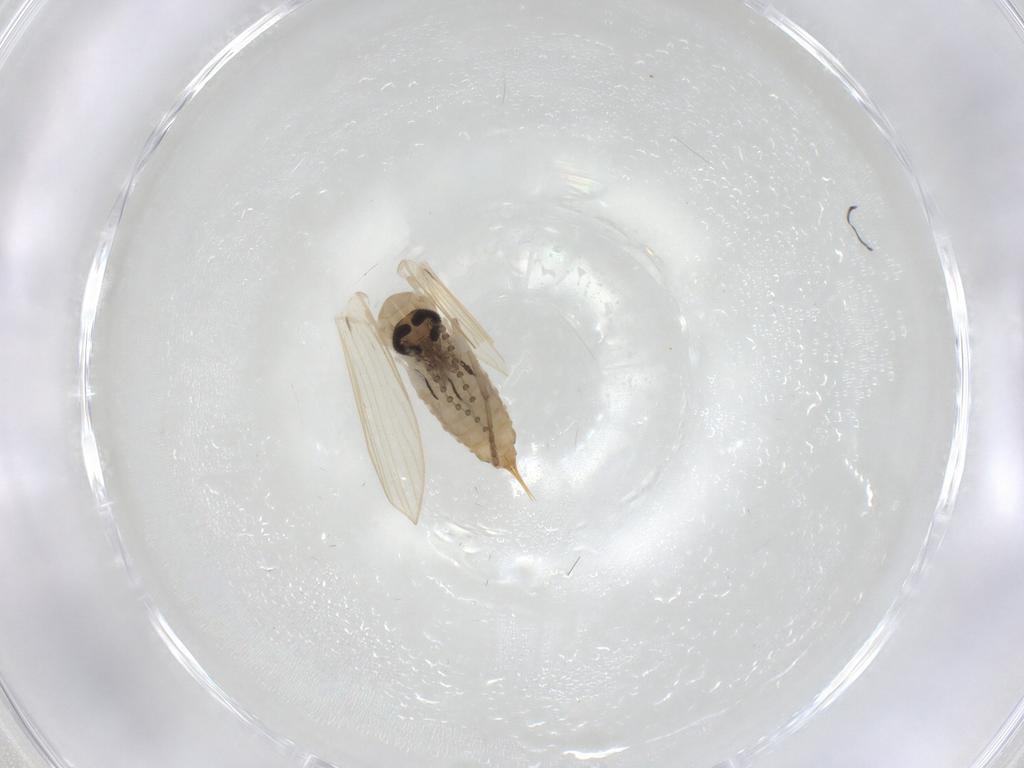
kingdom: Animalia
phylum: Arthropoda
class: Insecta
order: Diptera
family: Psychodidae
